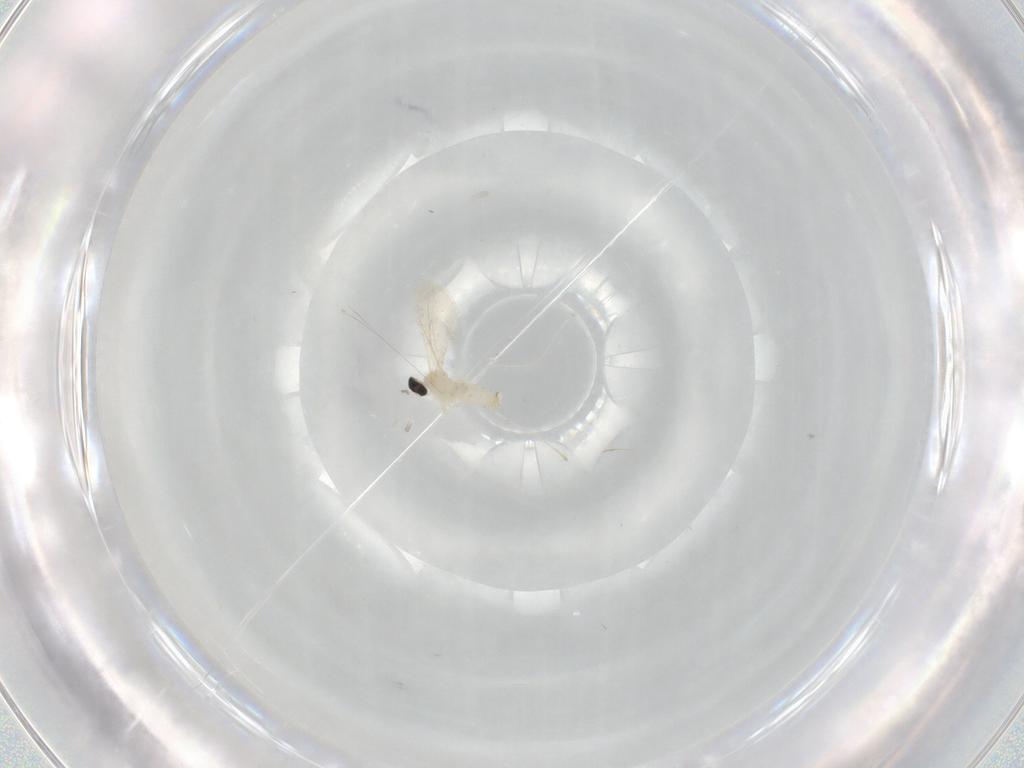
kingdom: Animalia
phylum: Arthropoda
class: Insecta
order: Diptera
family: Cecidomyiidae
